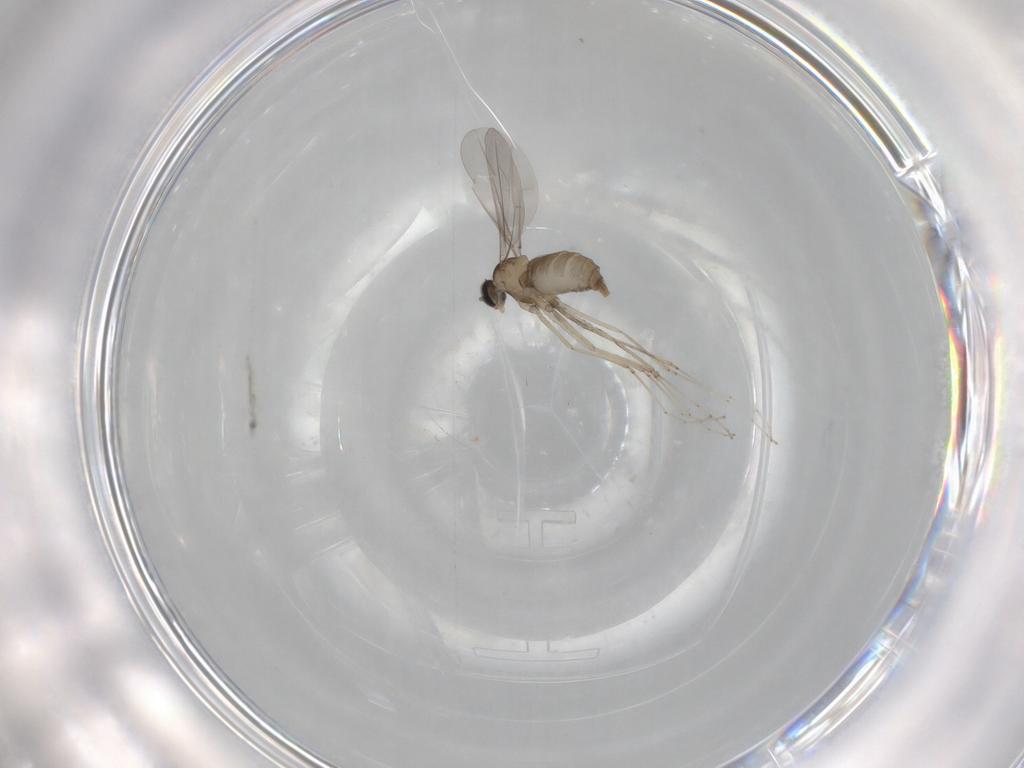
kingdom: Animalia
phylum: Arthropoda
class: Insecta
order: Diptera
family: Cecidomyiidae
